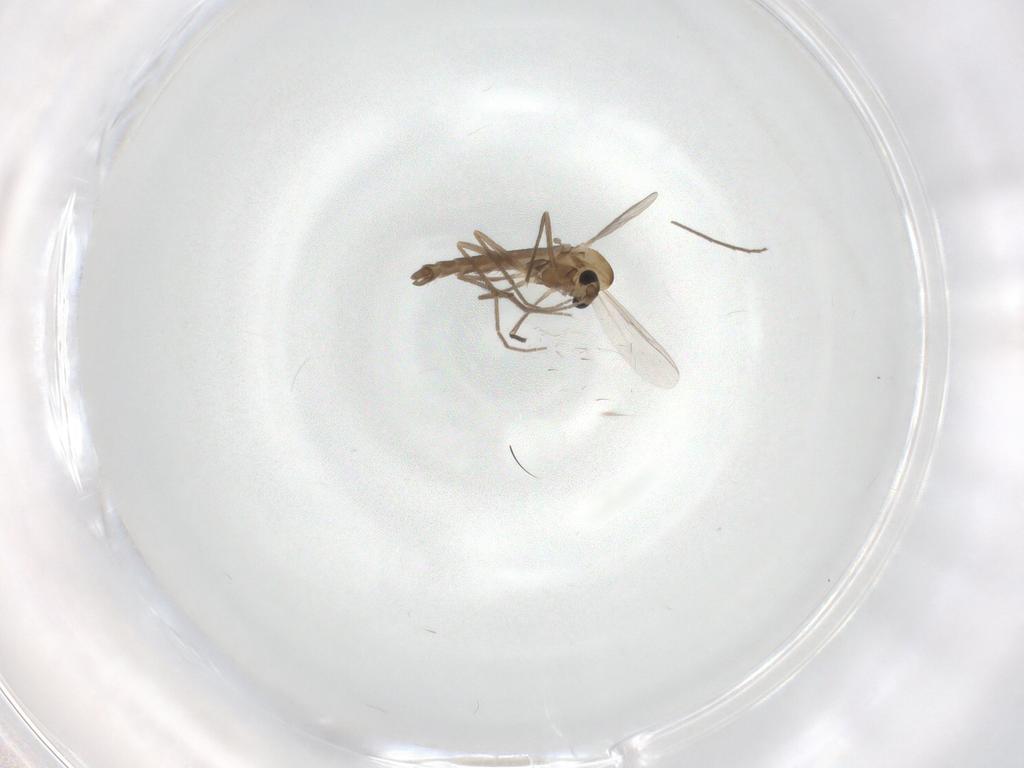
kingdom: Animalia
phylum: Arthropoda
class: Insecta
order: Diptera
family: Chironomidae
